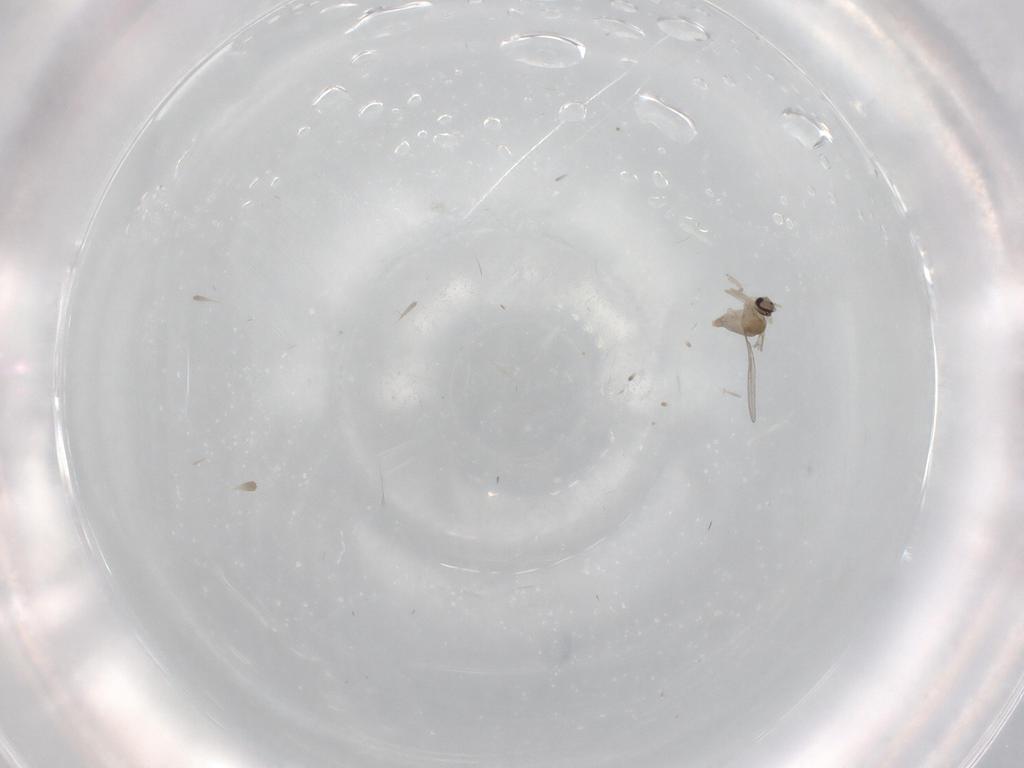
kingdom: Animalia
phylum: Arthropoda
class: Insecta
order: Diptera
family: Cecidomyiidae
